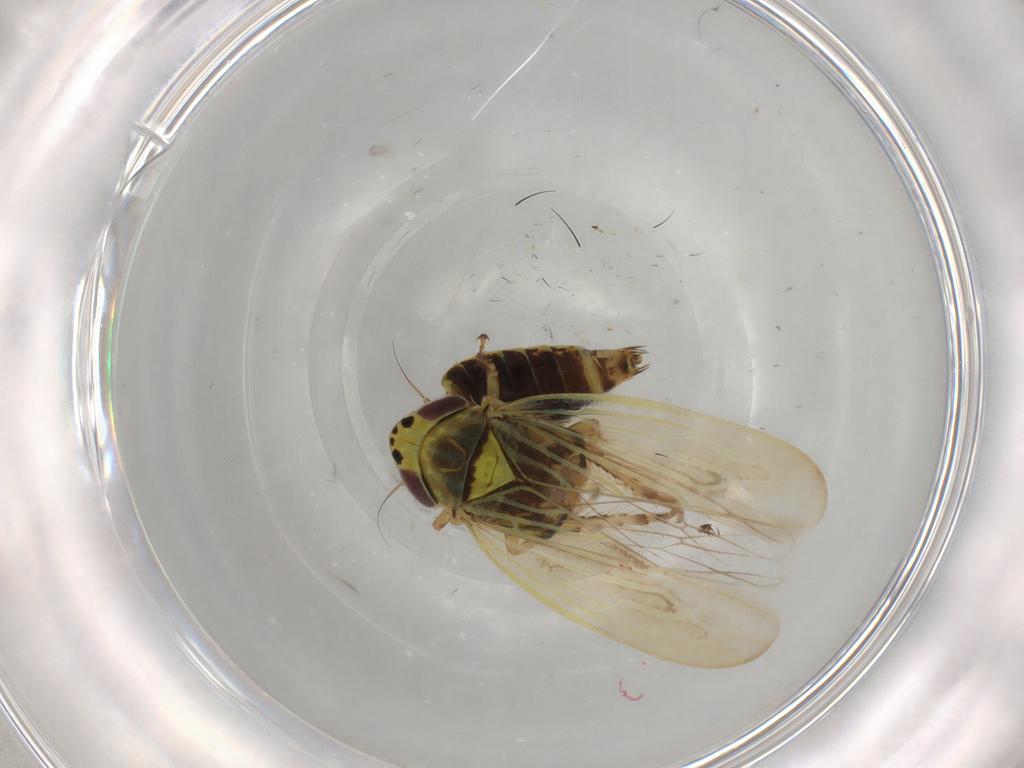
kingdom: Animalia
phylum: Arthropoda
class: Insecta
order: Hemiptera
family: Cicadellidae
